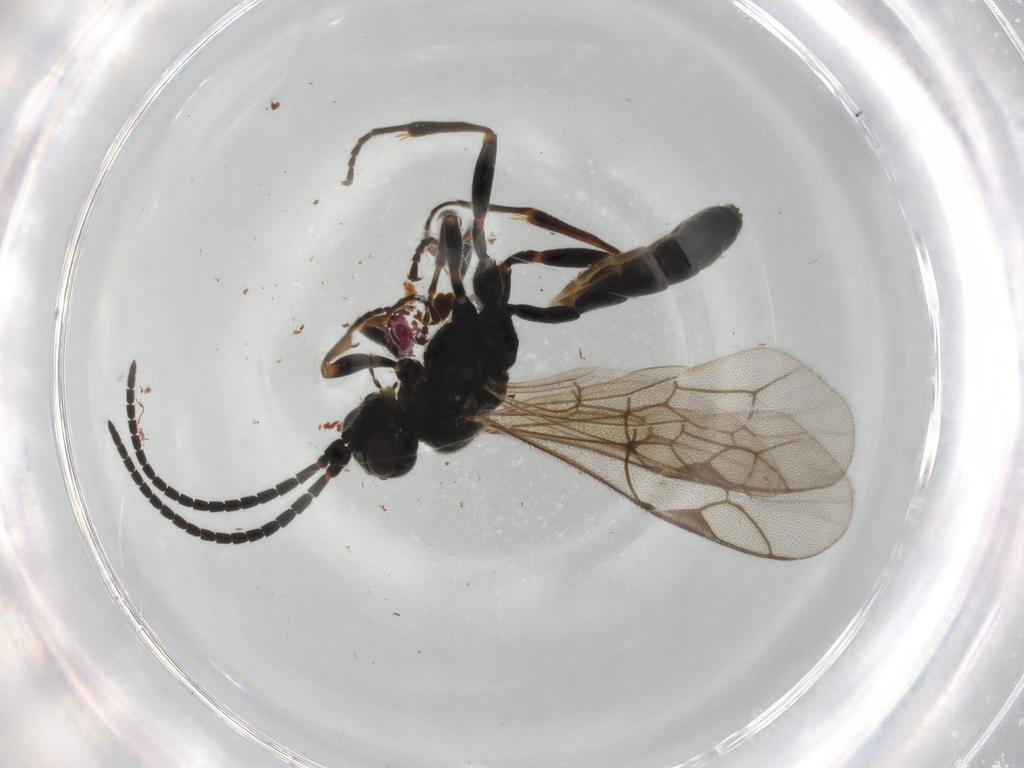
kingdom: Animalia
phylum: Arthropoda
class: Insecta
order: Hymenoptera
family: Ichneumonidae
